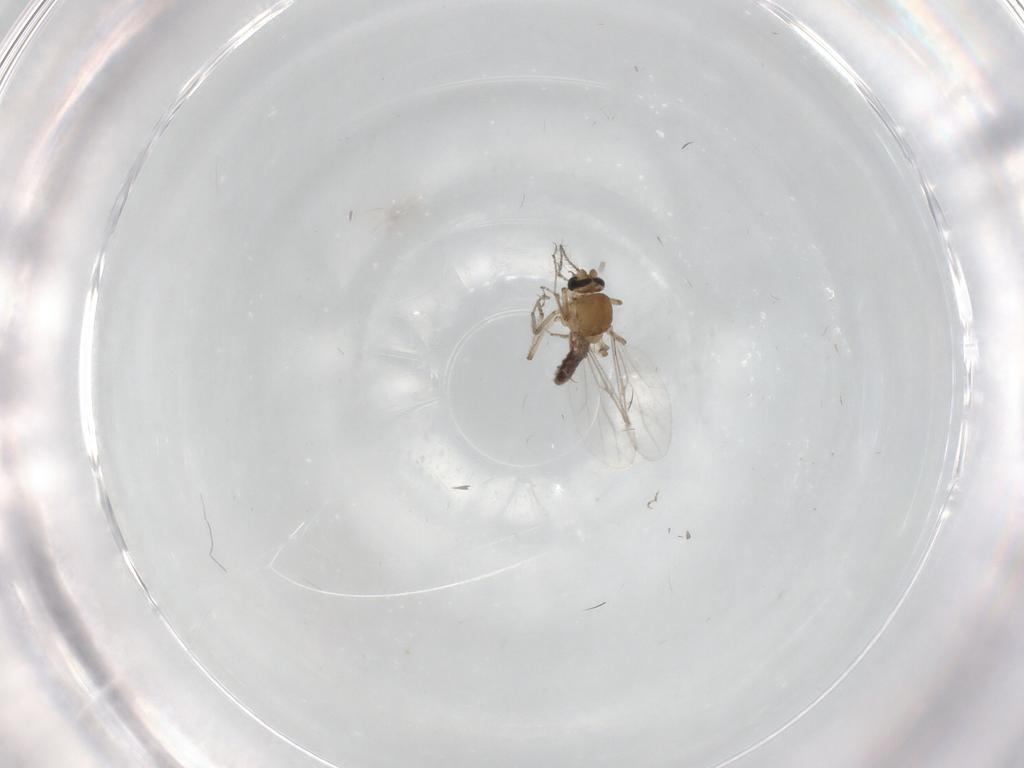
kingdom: Animalia
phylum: Arthropoda
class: Insecta
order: Diptera
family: Ceratopogonidae
